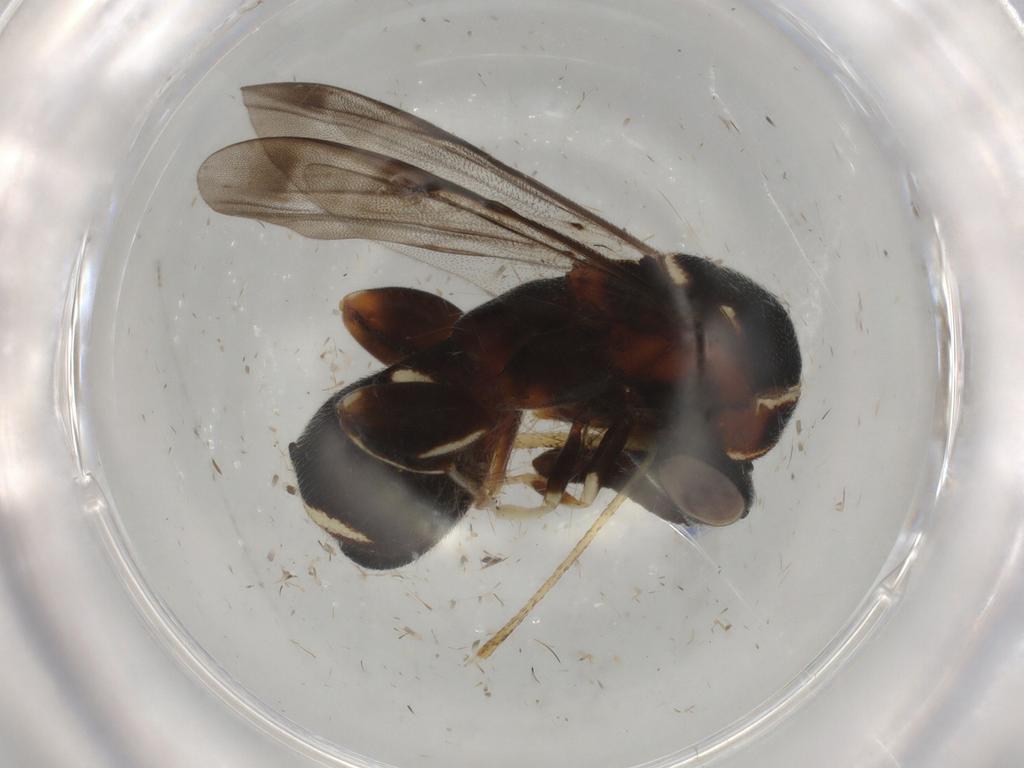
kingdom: Animalia
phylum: Arthropoda
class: Insecta
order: Hymenoptera
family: Leucospidae
